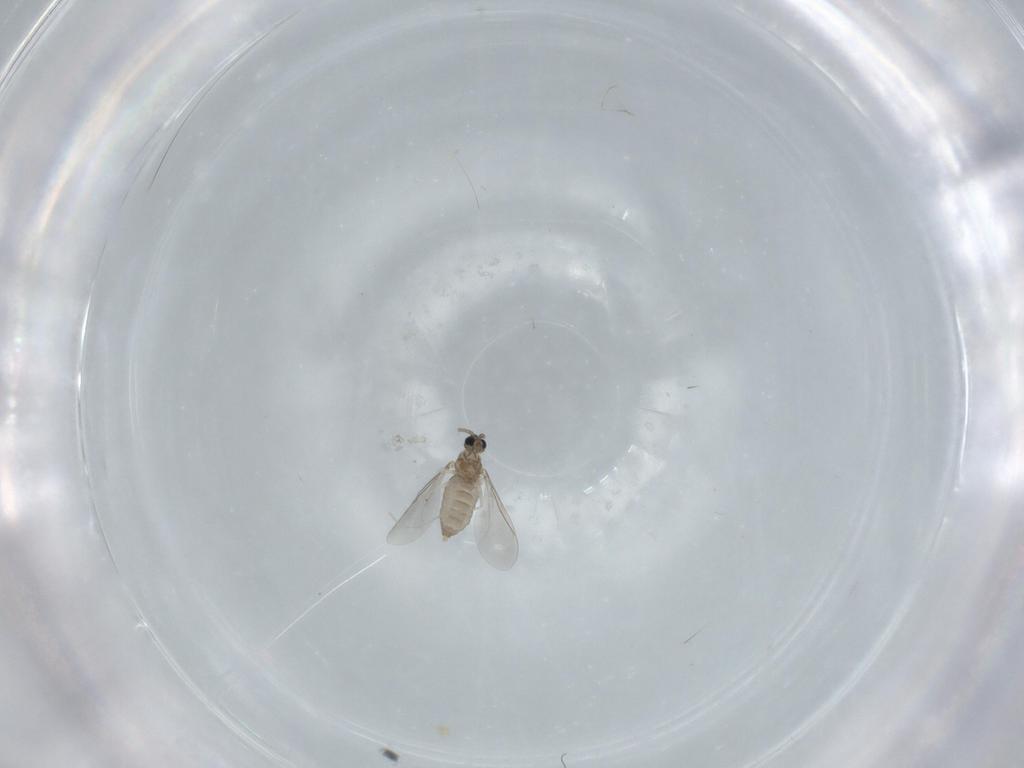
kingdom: Animalia
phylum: Arthropoda
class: Insecta
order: Diptera
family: Cecidomyiidae
